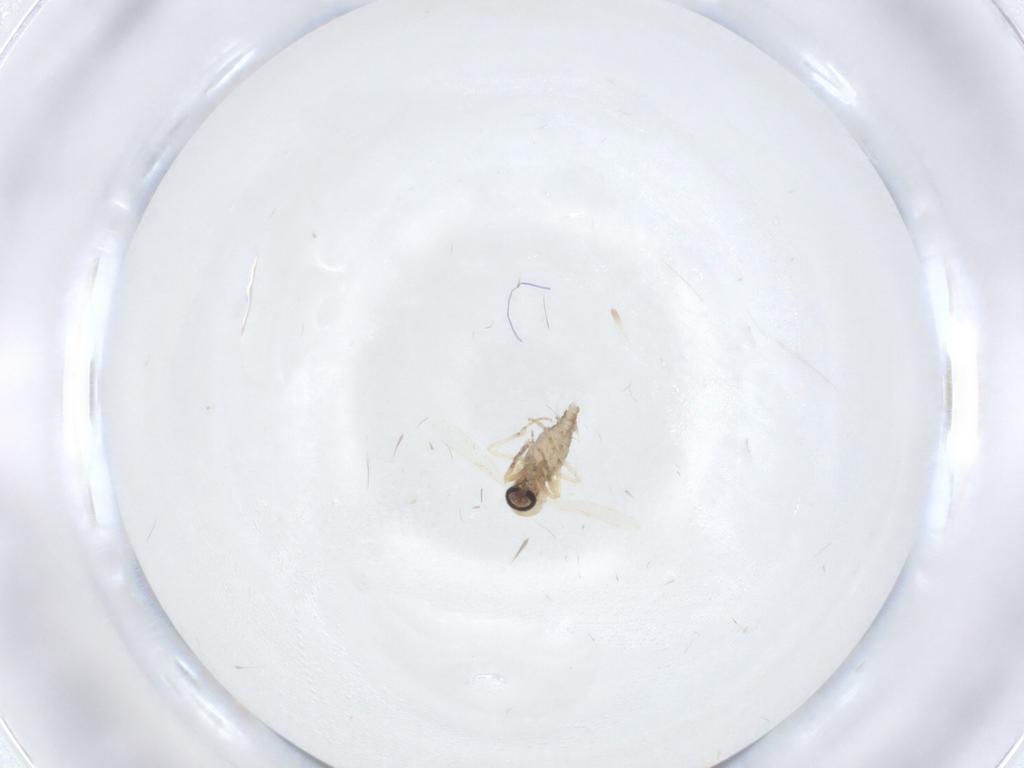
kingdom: Animalia
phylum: Arthropoda
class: Insecta
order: Diptera
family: Ceratopogonidae
